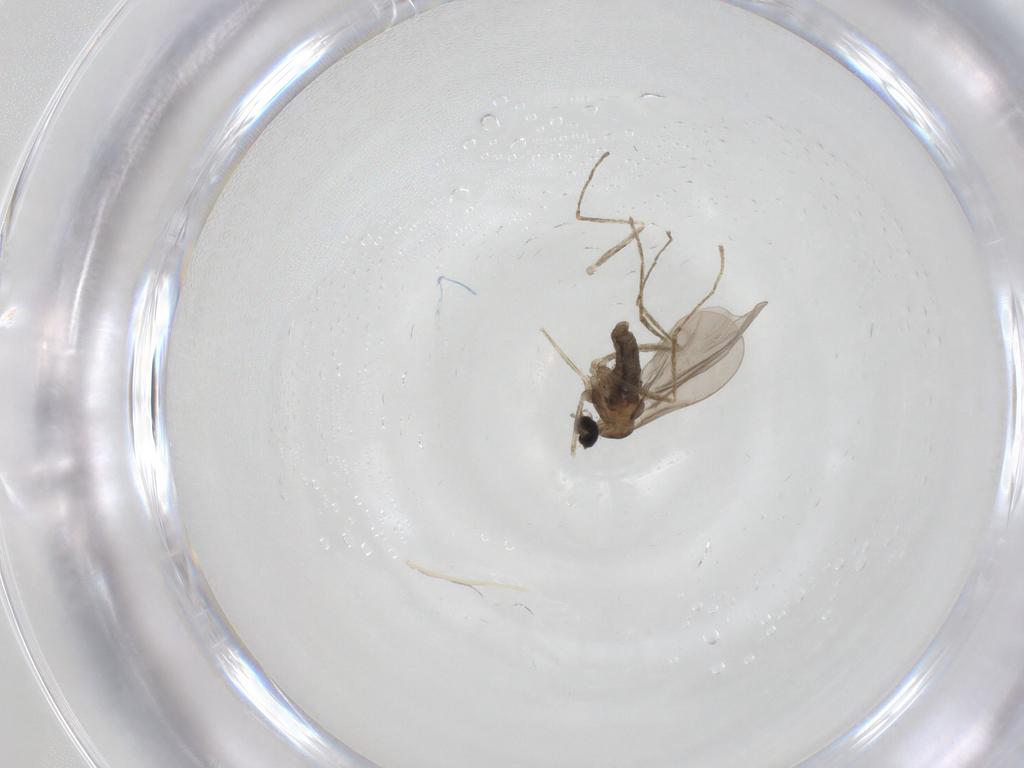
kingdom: Animalia
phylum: Arthropoda
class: Insecta
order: Diptera
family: Cecidomyiidae
